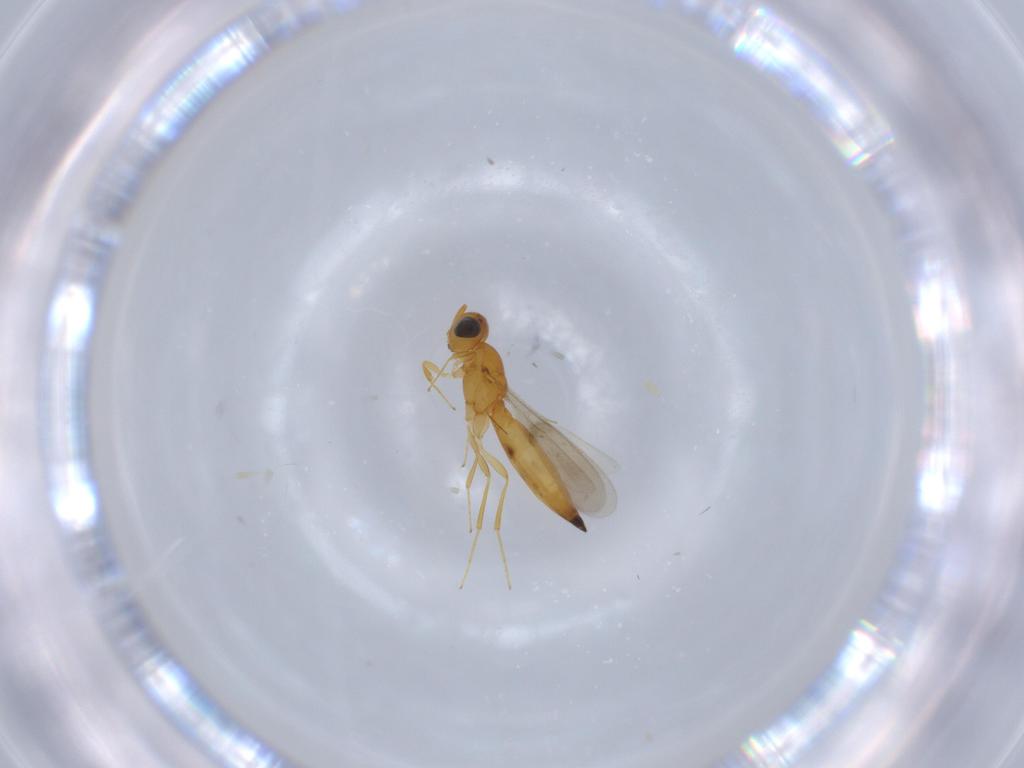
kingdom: Animalia
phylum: Arthropoda
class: Insecta
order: Hymenoptera
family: Scelionidae
